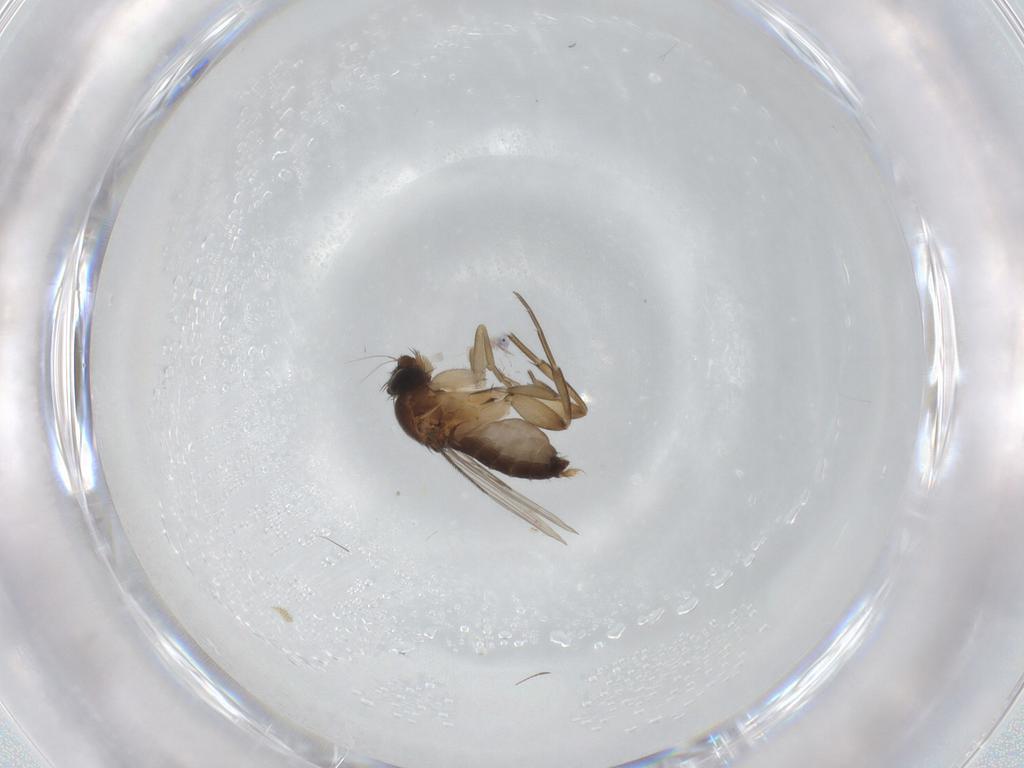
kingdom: Animalia
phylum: Arthropoda
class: Insecta
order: Diptera
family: Phoridae
